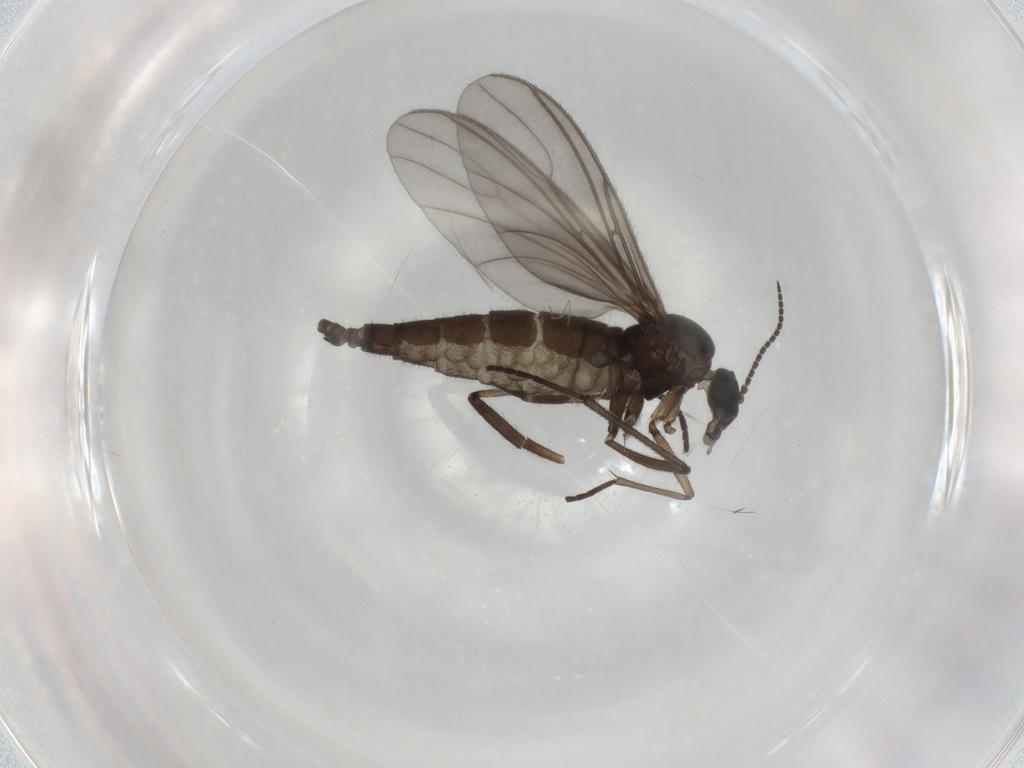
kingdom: Animalia
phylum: Arthropoda
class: Insecta
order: Diptera
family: Sciaridae
